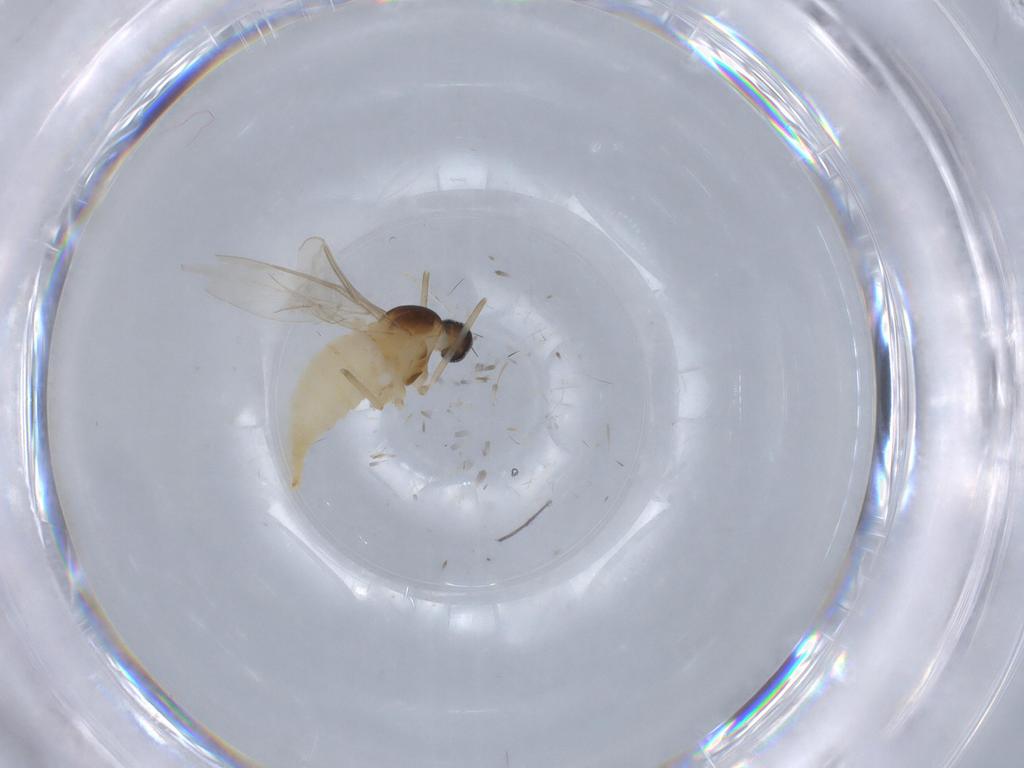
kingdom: Animalia
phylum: Arthropoda
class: Insecta
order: Diptera
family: Cecidomyiidae
